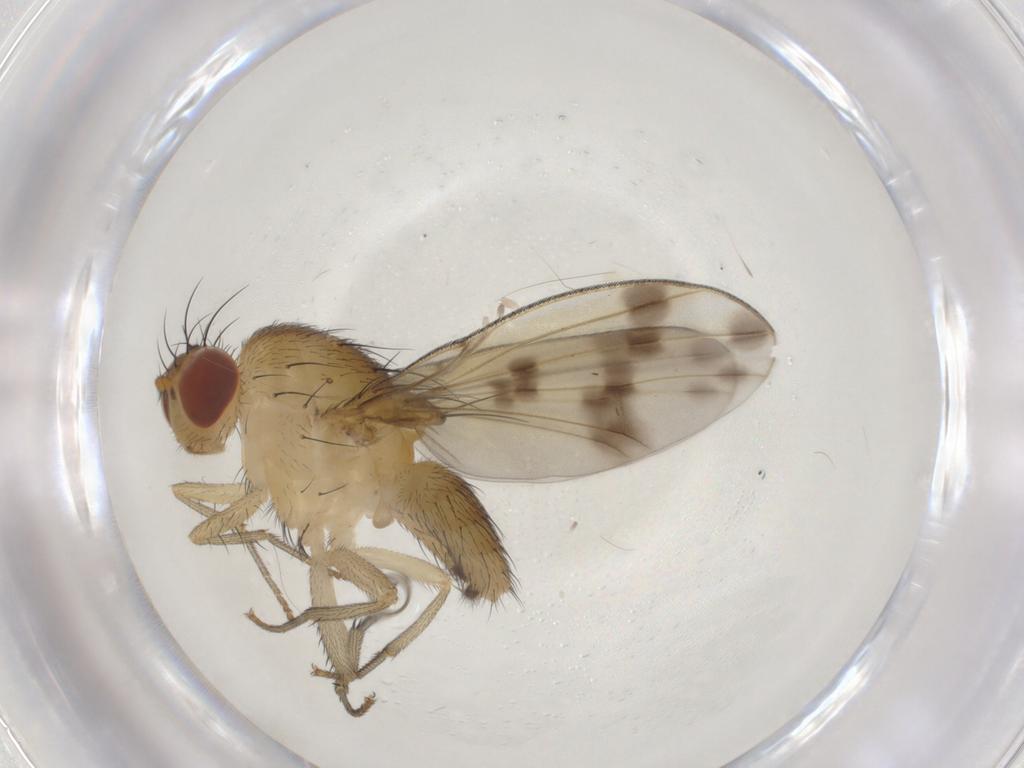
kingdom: Animalia
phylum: Arthropoda
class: Insecta
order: Diptera
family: Lauxaniidae
